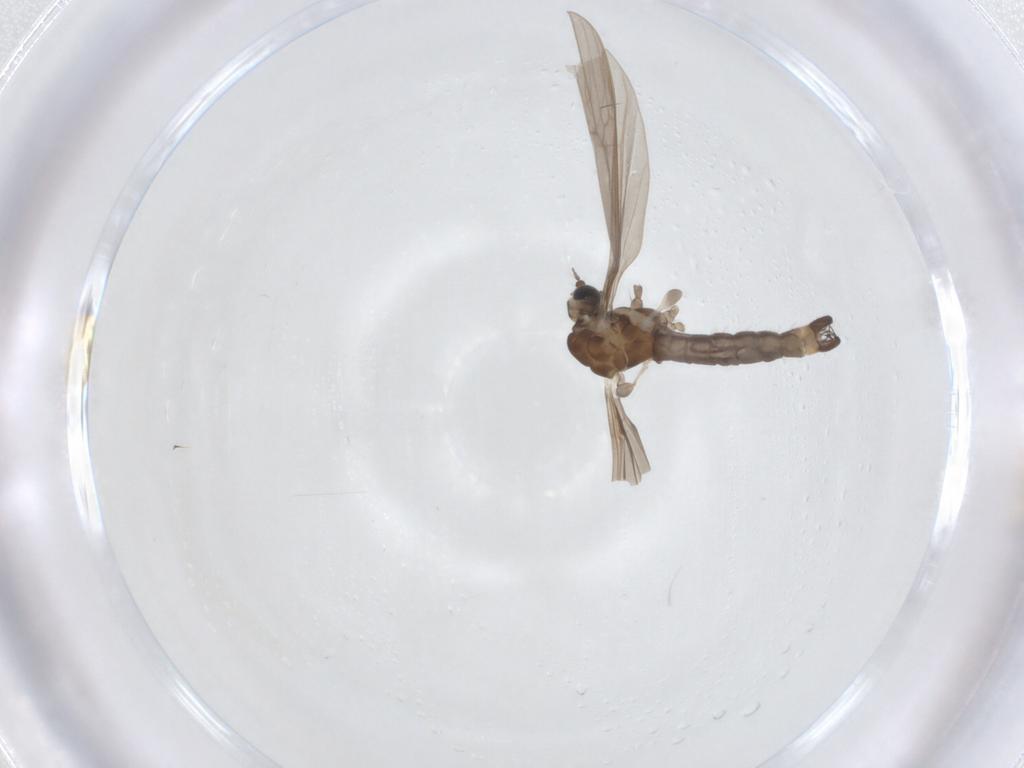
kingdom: Animalia
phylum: Arthropoda
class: Insecta
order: Diptera
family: Limoniidae
